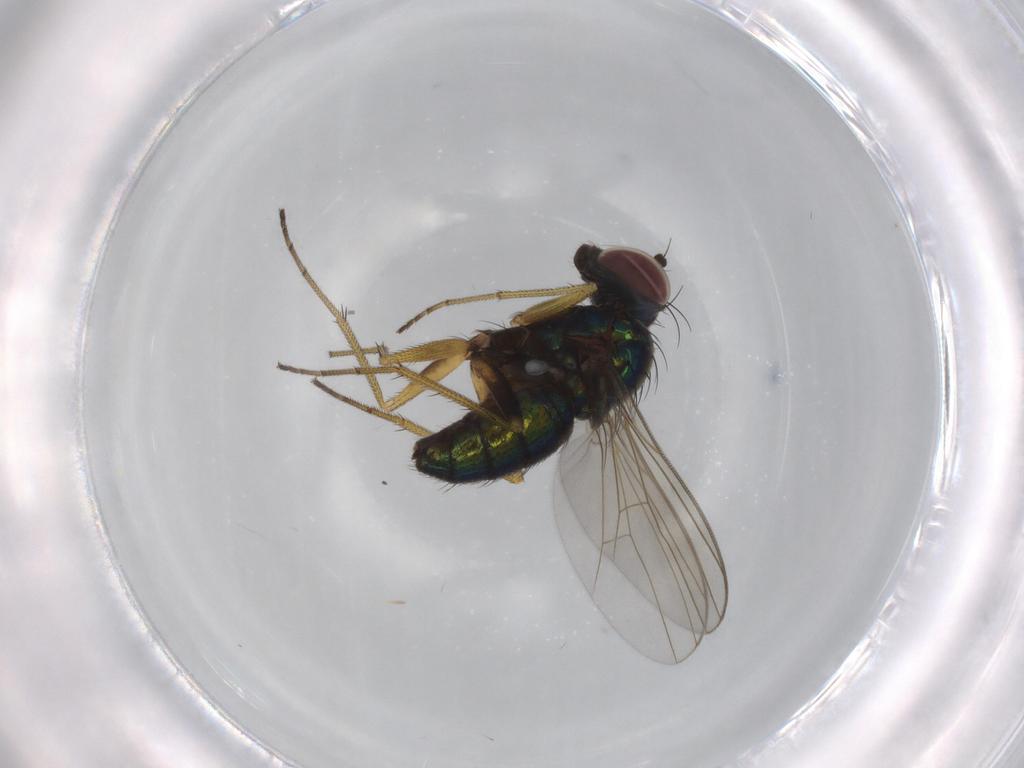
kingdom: Animalia
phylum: Arthropoda
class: Insecta
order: Diptera
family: Dolichopodidae
